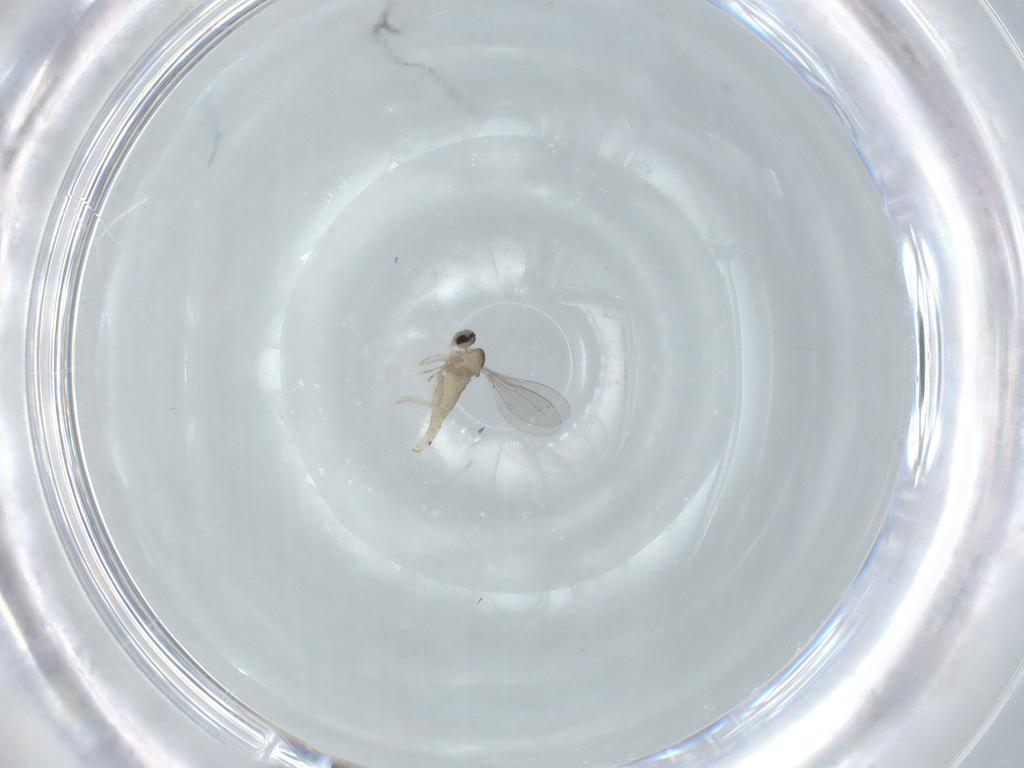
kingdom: Animalia
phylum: Arthropoda
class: Insecta
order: Diptera
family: Cecidomyiidae
